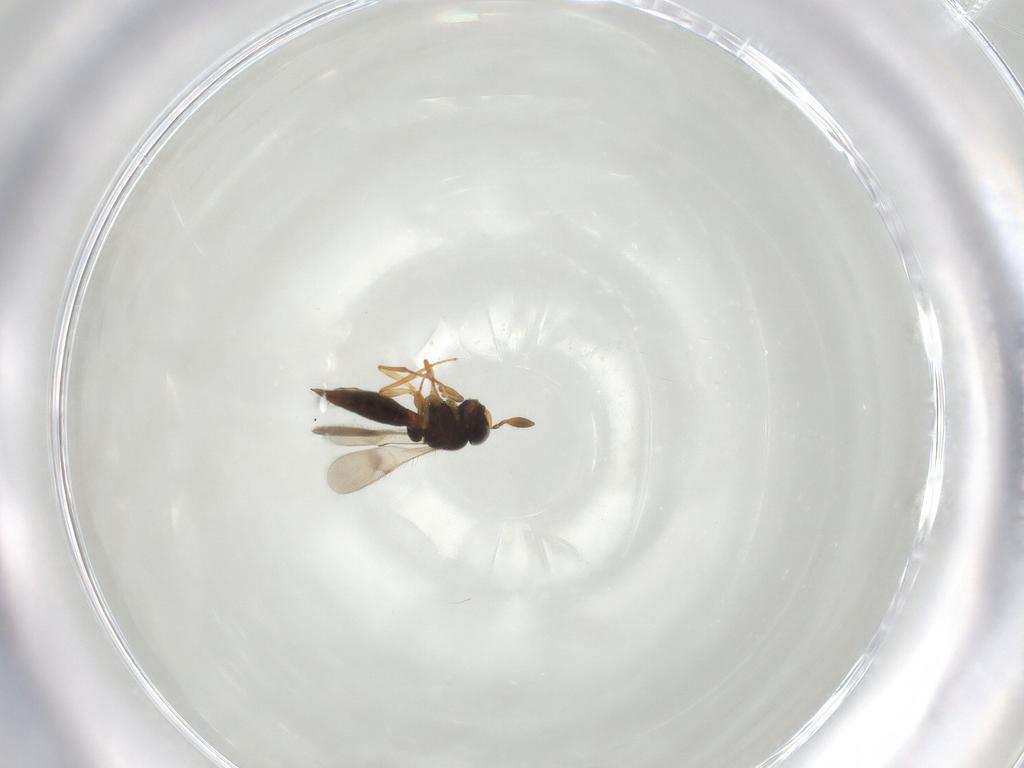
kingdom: Animalia
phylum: Arthropoda
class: Insecta
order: Hymenoptera
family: Scelionidae
